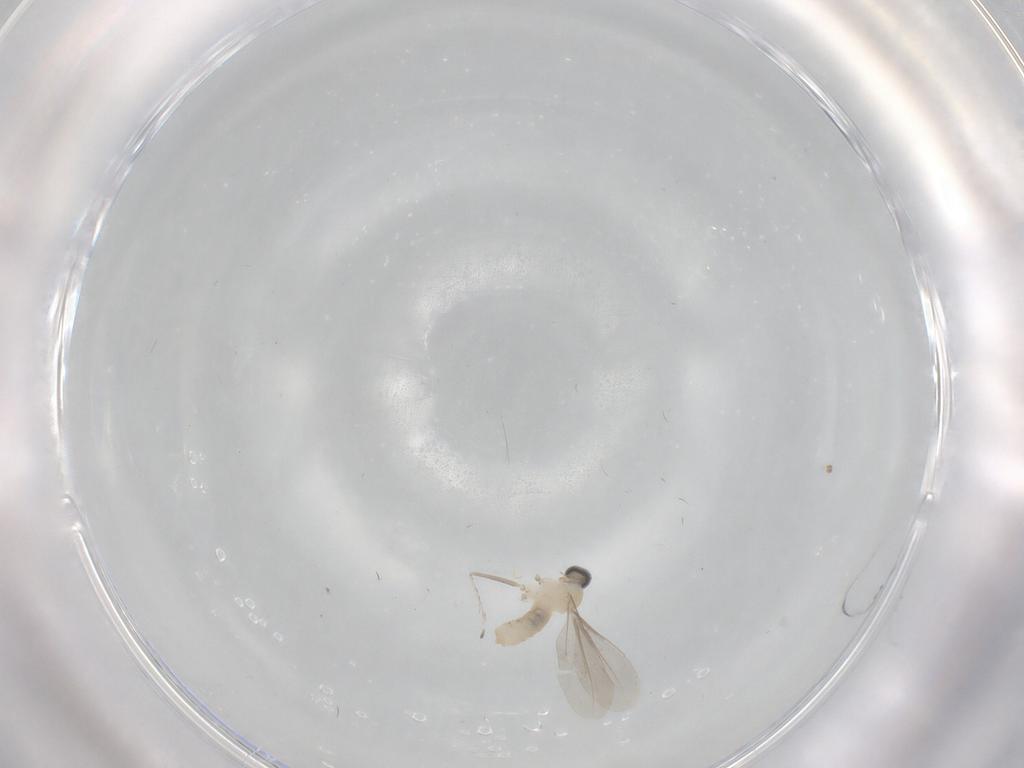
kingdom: Animalia
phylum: Arthropoda
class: Insecta
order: Diptera
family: Cecidomyiidae
